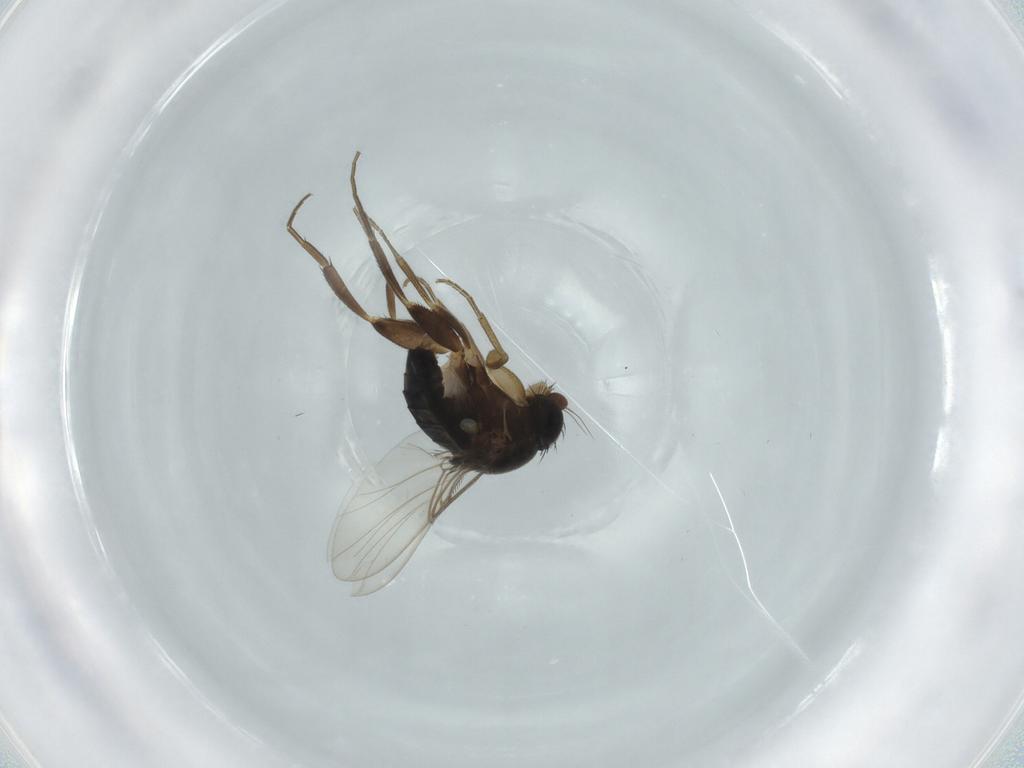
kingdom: Animalia
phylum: Arthropoda
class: Insecta
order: Diptera
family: Phoridae
